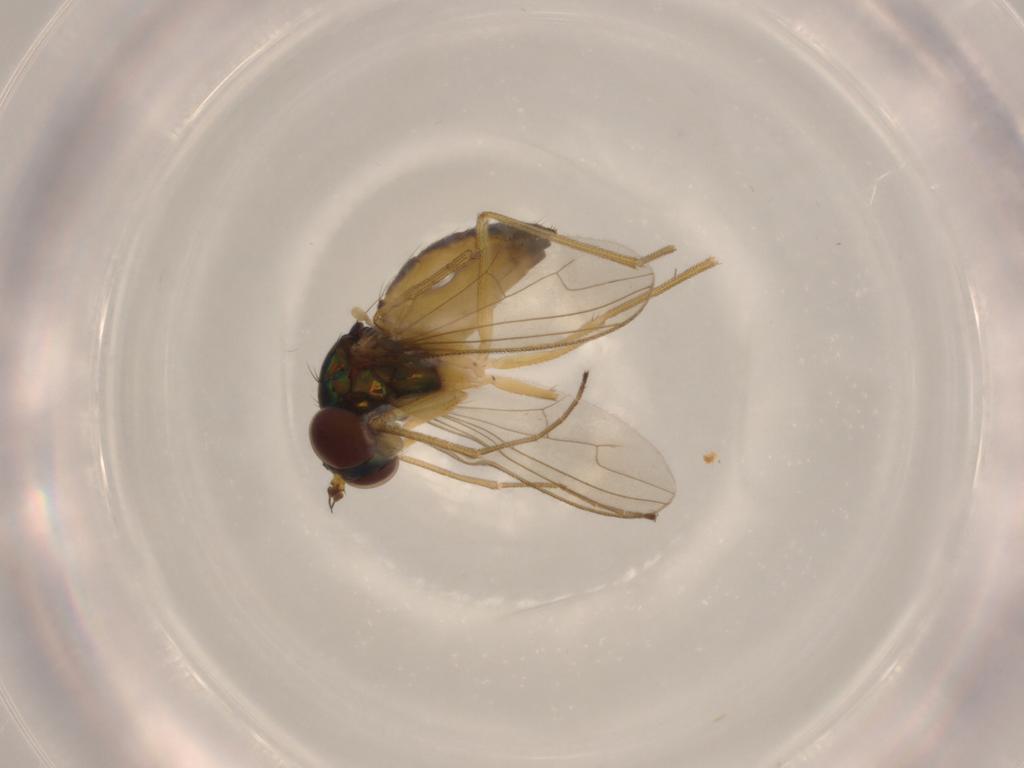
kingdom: Animalia
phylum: Arthropoda
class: Insecta
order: Diptera
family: Dolichopodidae
